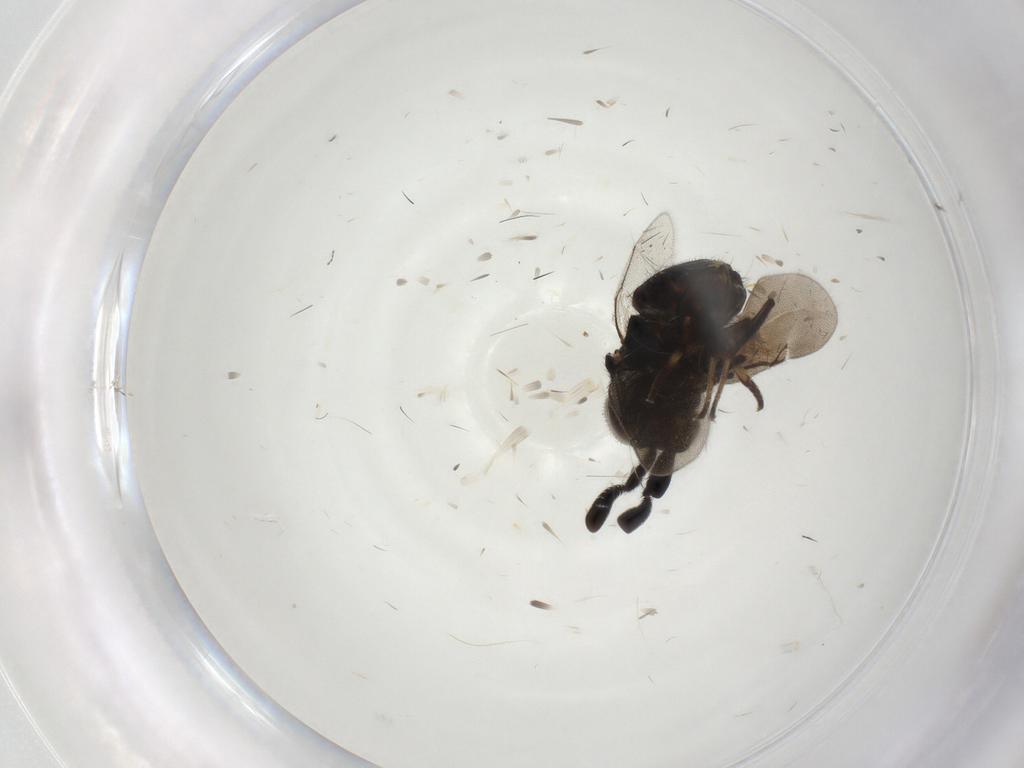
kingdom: Animalia
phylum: Arthropoda
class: Insecta
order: Hymenoptera
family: Encyrtidae
